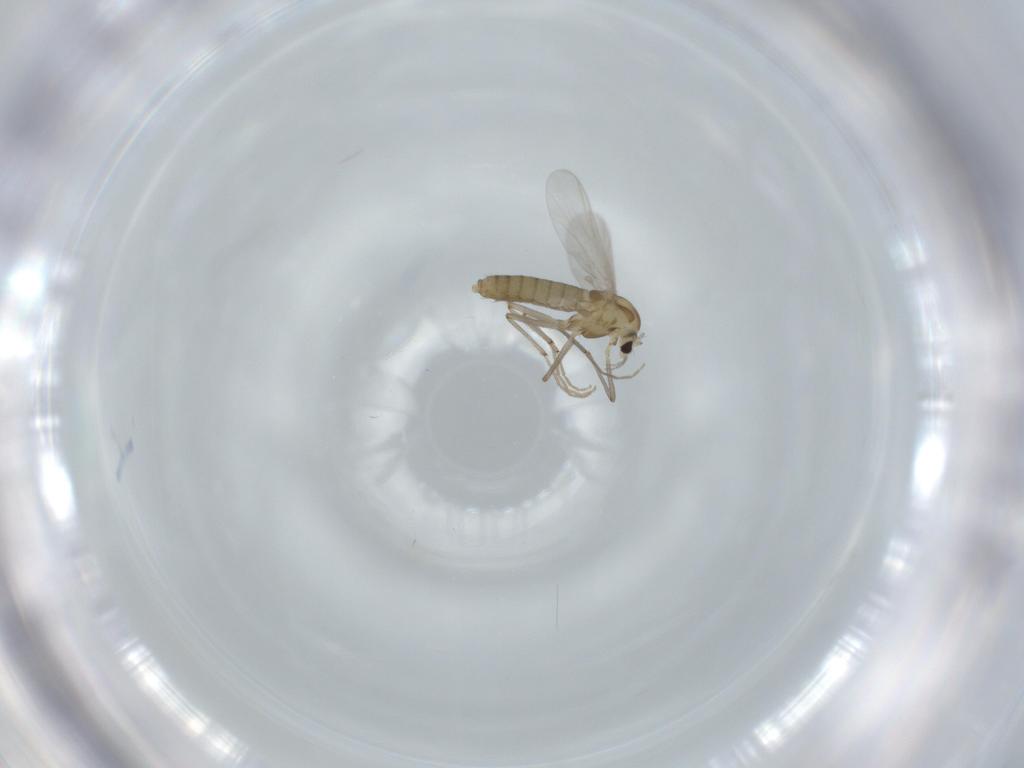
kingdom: Animalia
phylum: Arthropoda
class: Insecta
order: Diptera
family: Chironomidae
